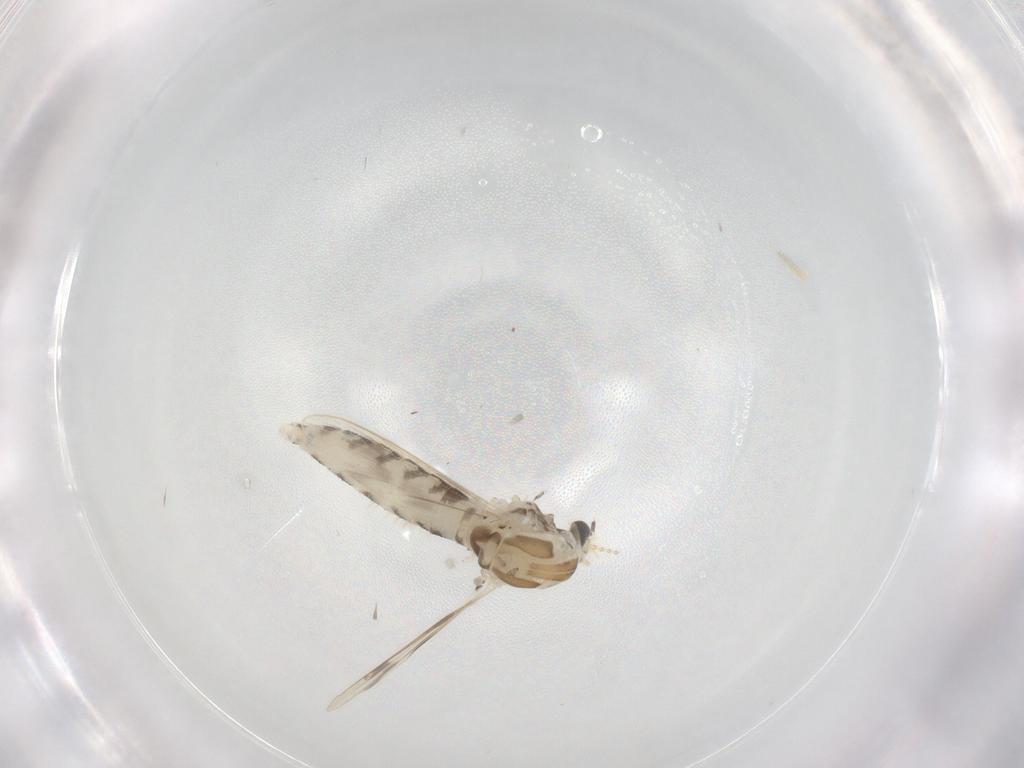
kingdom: Animalia
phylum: Arthropoda
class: Insecta
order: Diptera
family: Corethrellidae
